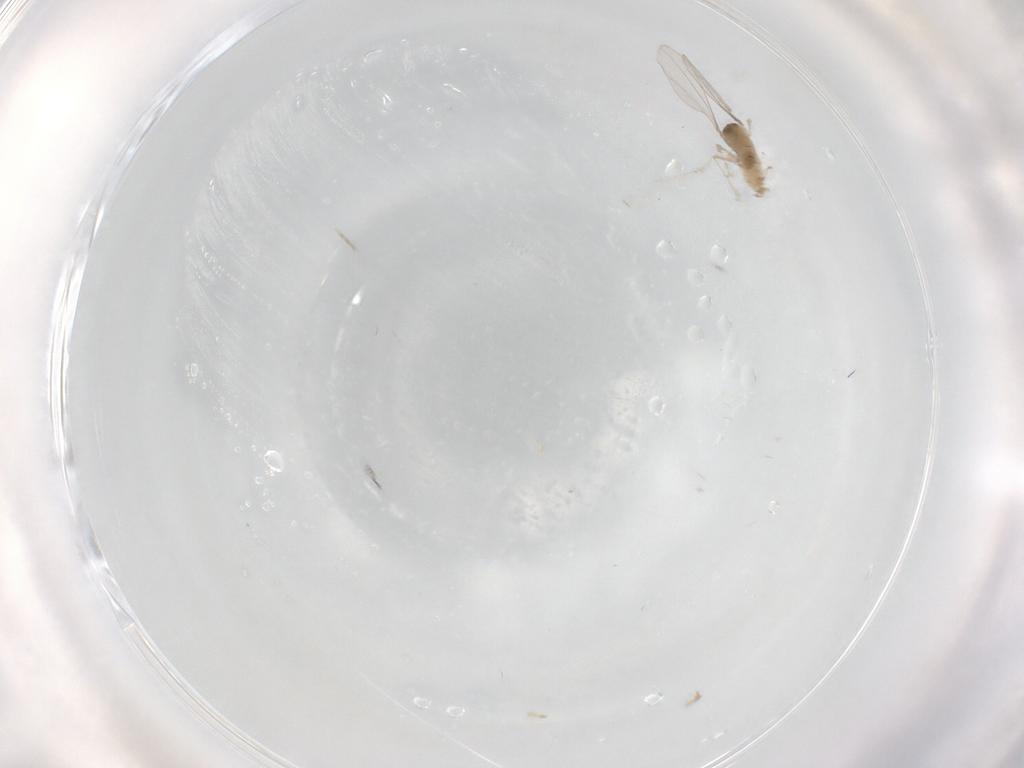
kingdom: Animalia
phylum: Arthropoda
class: Insecta
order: Diptera
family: Cecidomyiidae
